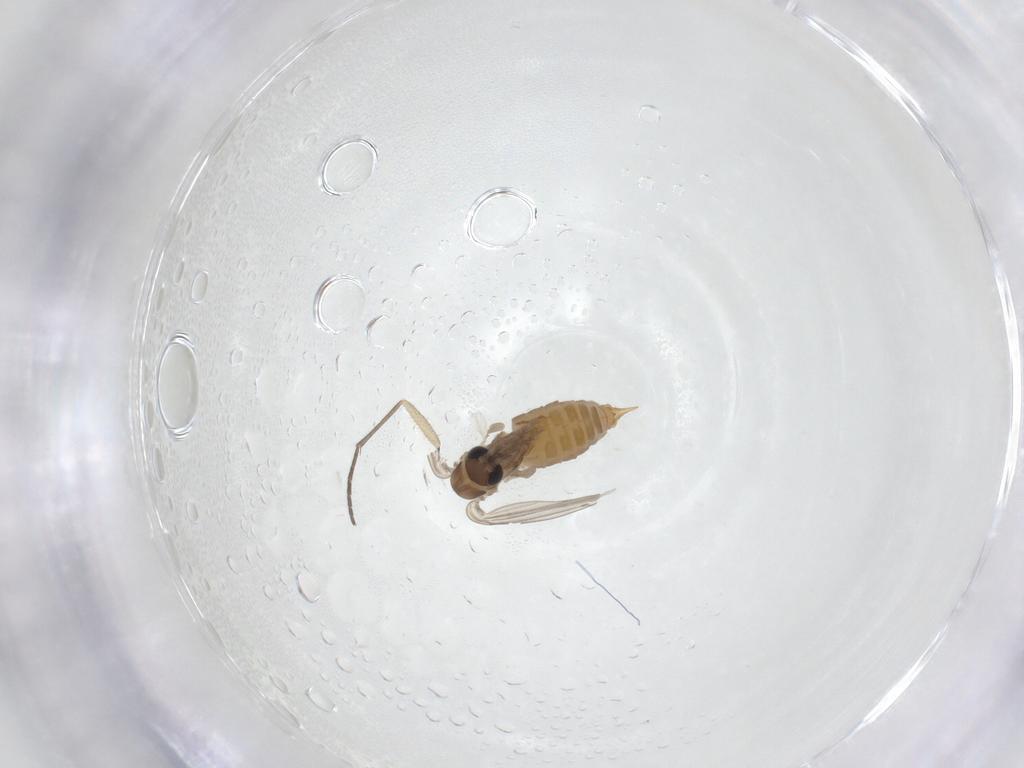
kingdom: Animalia
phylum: Arthropoda
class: Insecta
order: Diptera
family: Psychodidae
